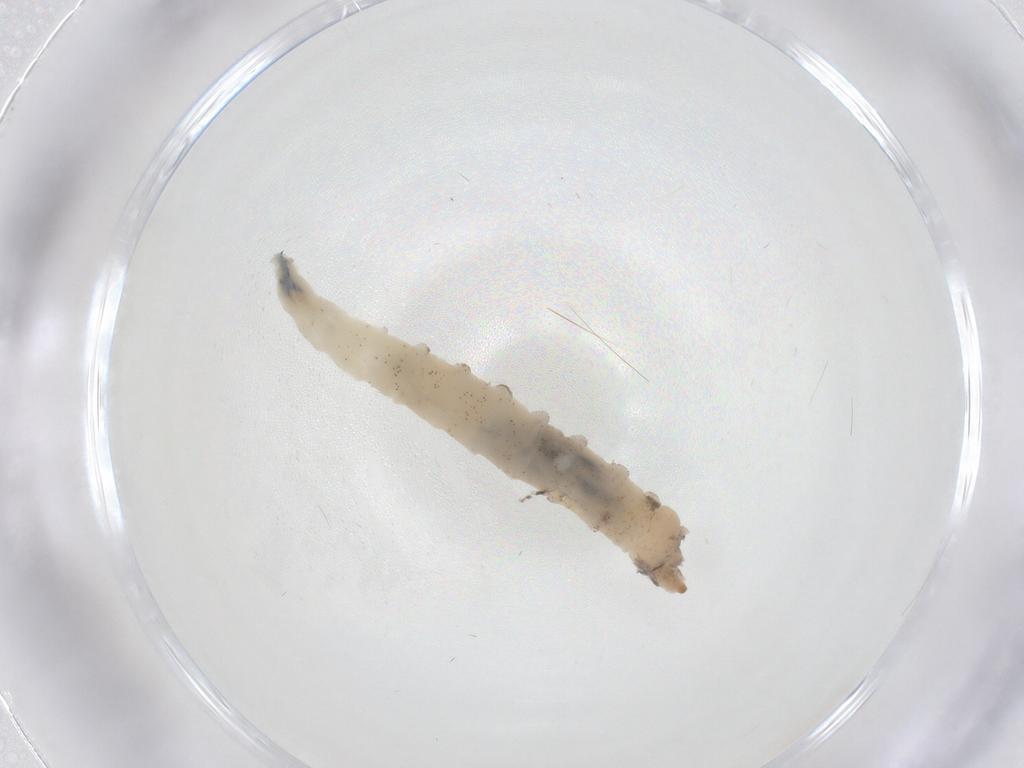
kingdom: Animalia
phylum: Arthropoda
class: Insecta
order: Diptera
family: Drosophilidae
